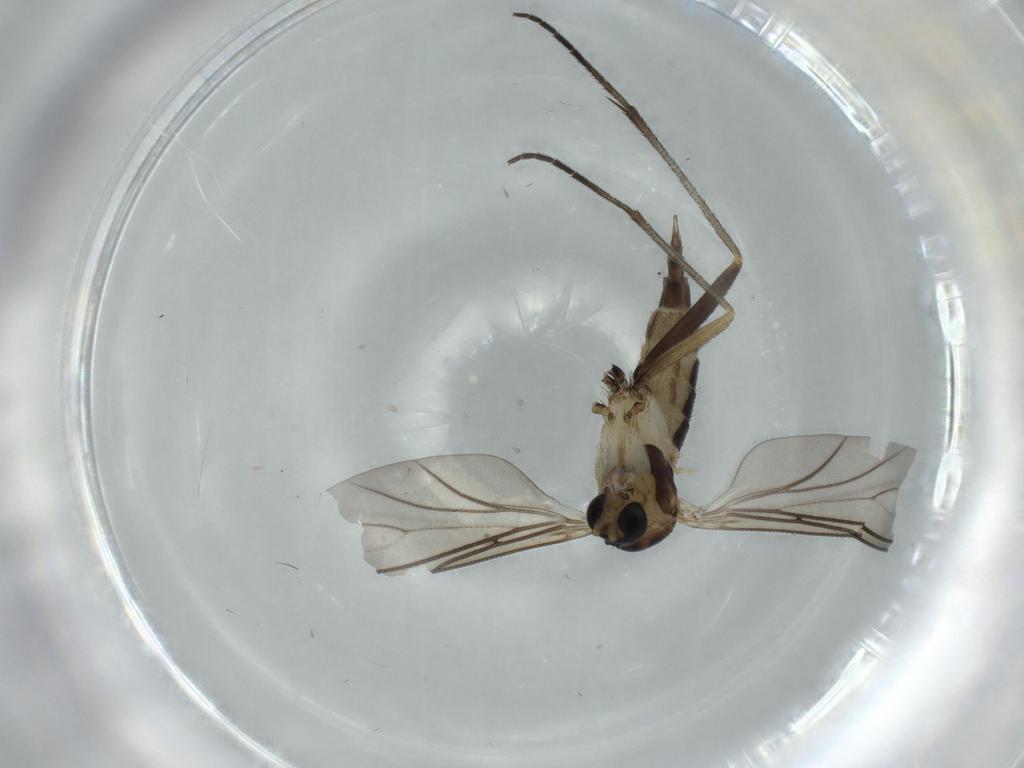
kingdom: Animalia
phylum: Arthropoda
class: Insecta
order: Diptera
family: Sciaridae
